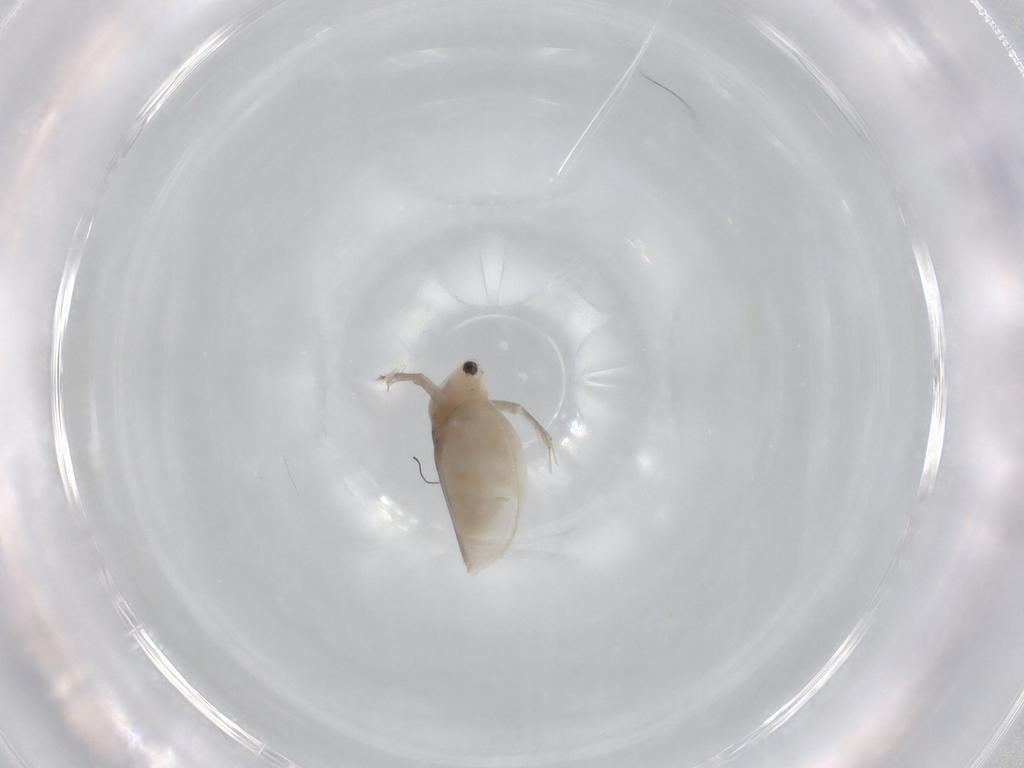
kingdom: Animalia
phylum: Arthropoda
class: Branchiopoda
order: Diplostraca
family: Daphniidae
